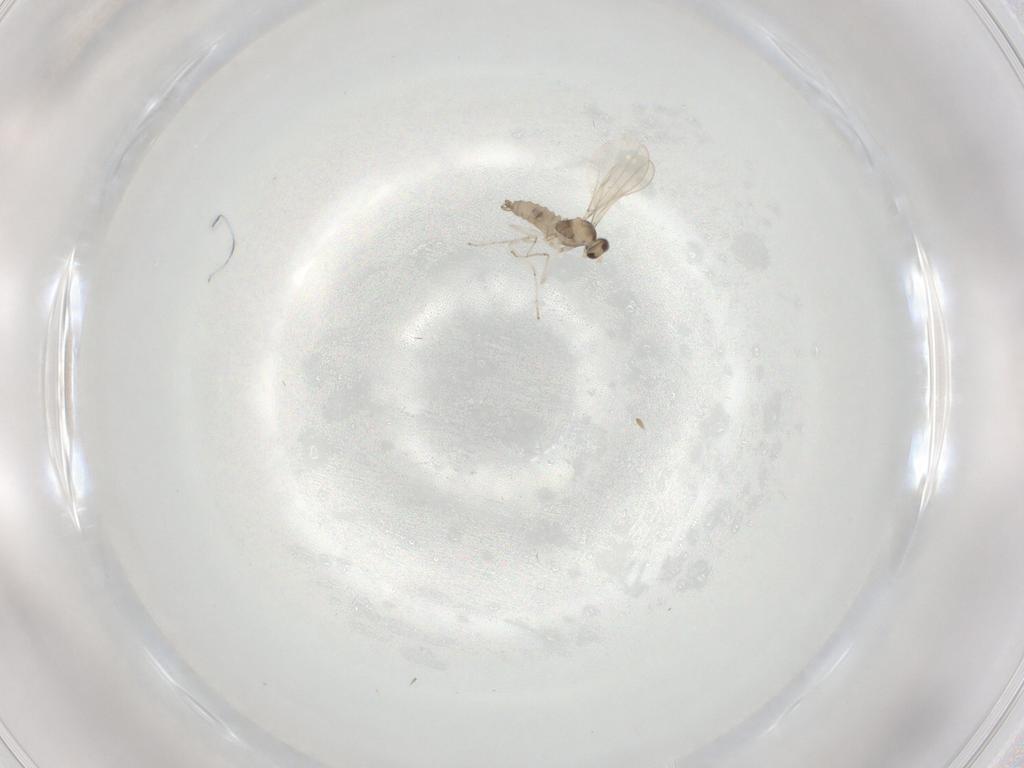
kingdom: Animalia
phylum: Arthropoda
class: Insecta
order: Diptera
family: Cecidomyiidae
